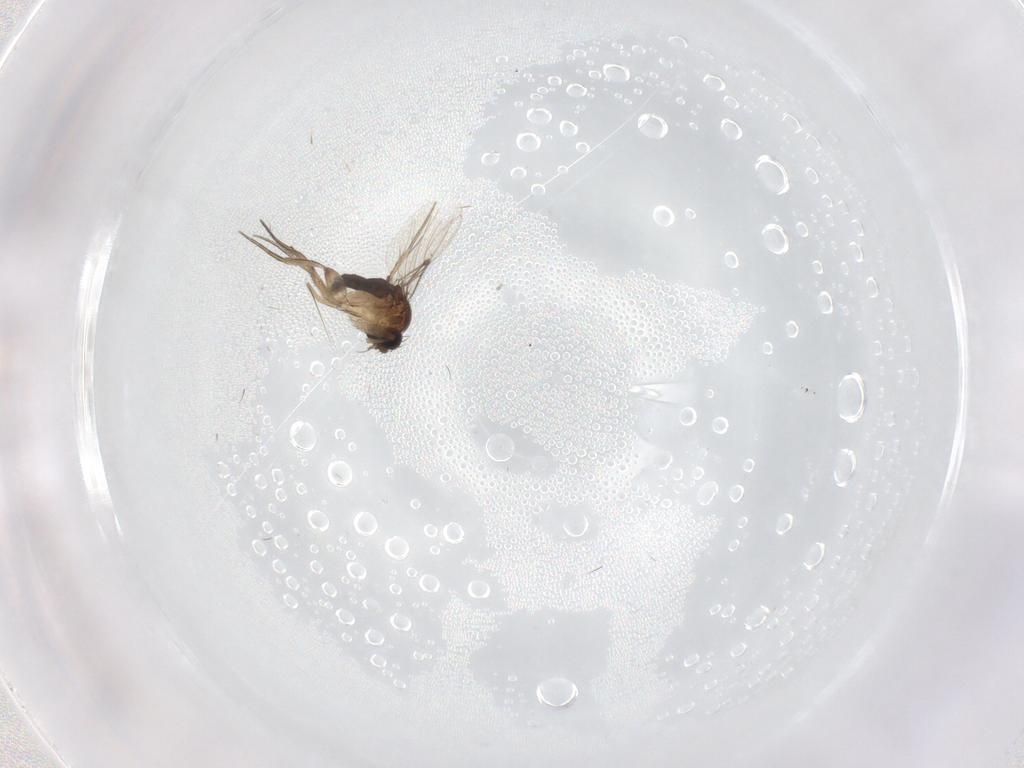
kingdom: Animalia
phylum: Arthropoda
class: Insecta
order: Diptera
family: Phoridae
